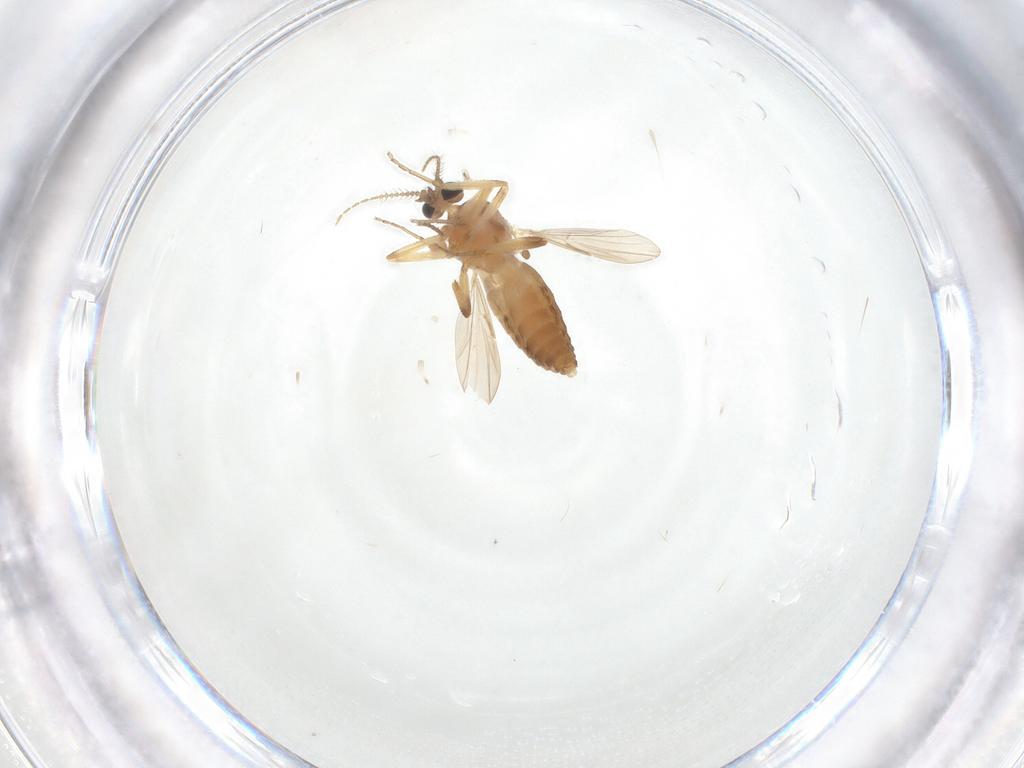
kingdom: Animalia
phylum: Arthropoda
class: Insecta
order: Diptera
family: Ceratopogonidae
